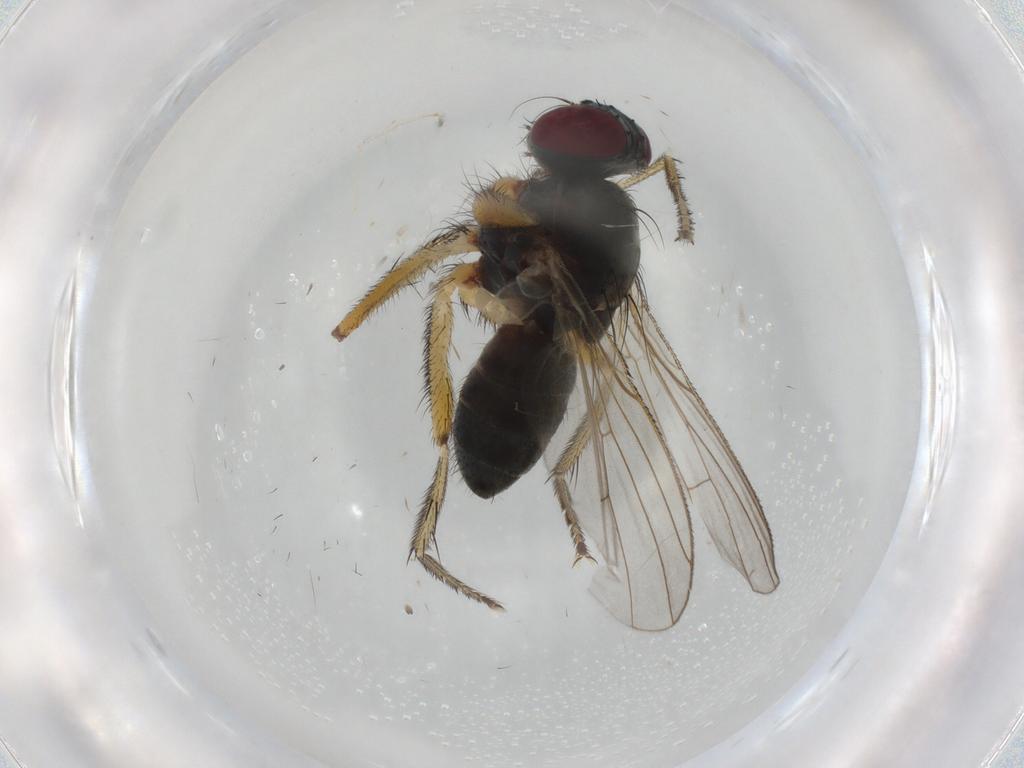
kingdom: Animalia
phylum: Arthropoda
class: Insecta
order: Diptera
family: Muscidae
